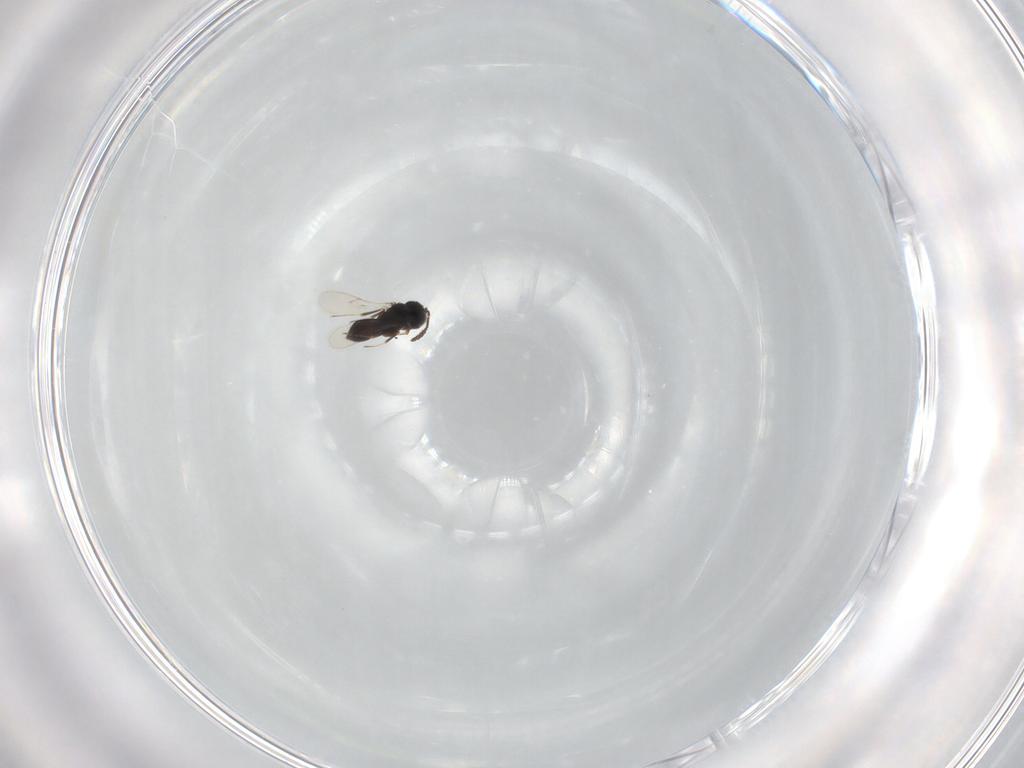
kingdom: Animalia
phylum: Arthropoda
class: Insecta
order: Hymenoptera
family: Scelionidae
